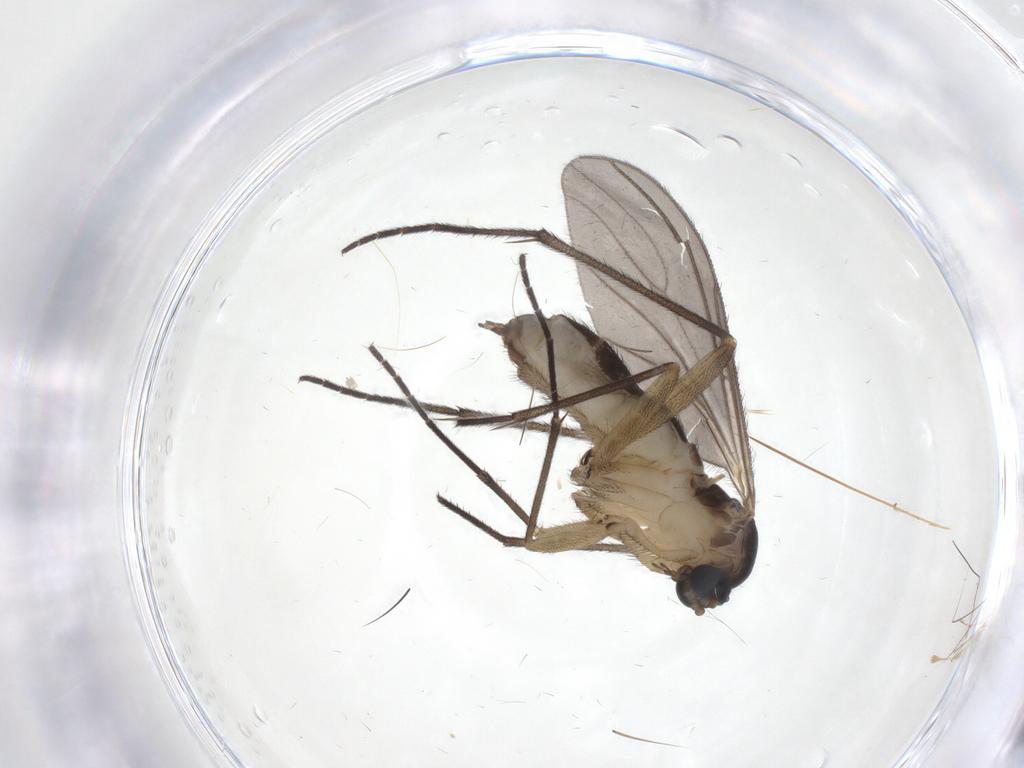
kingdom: Animalia
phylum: Arthropoda
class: Insecta
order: Diptera
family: Sciaridae
